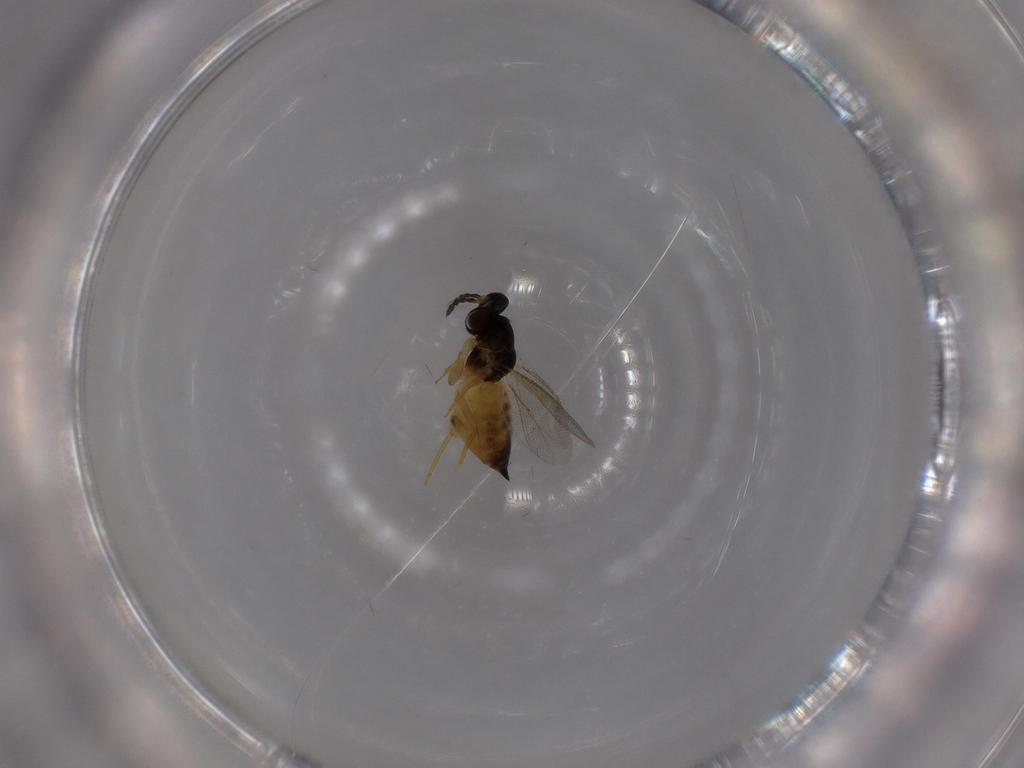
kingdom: Animalia
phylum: Arthropoda
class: Insecta
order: Hymenoptera
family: Eulophidae
